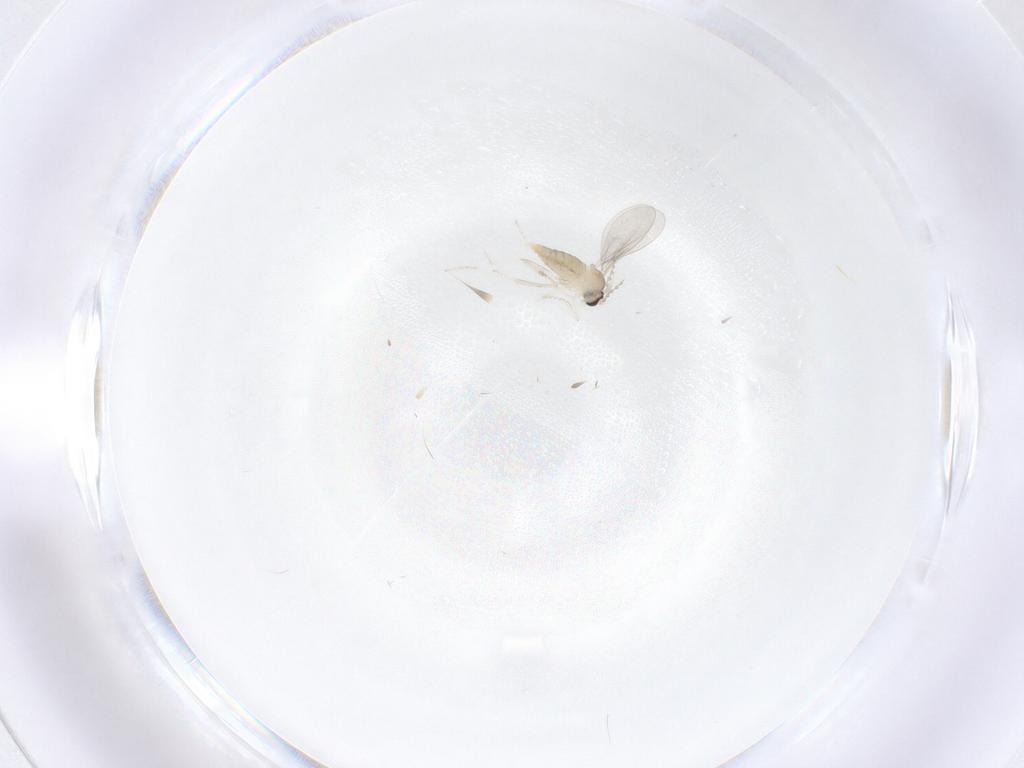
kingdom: Animalia
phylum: Arthropoda
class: Insecta
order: Diptera
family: Cecidomyiidae
